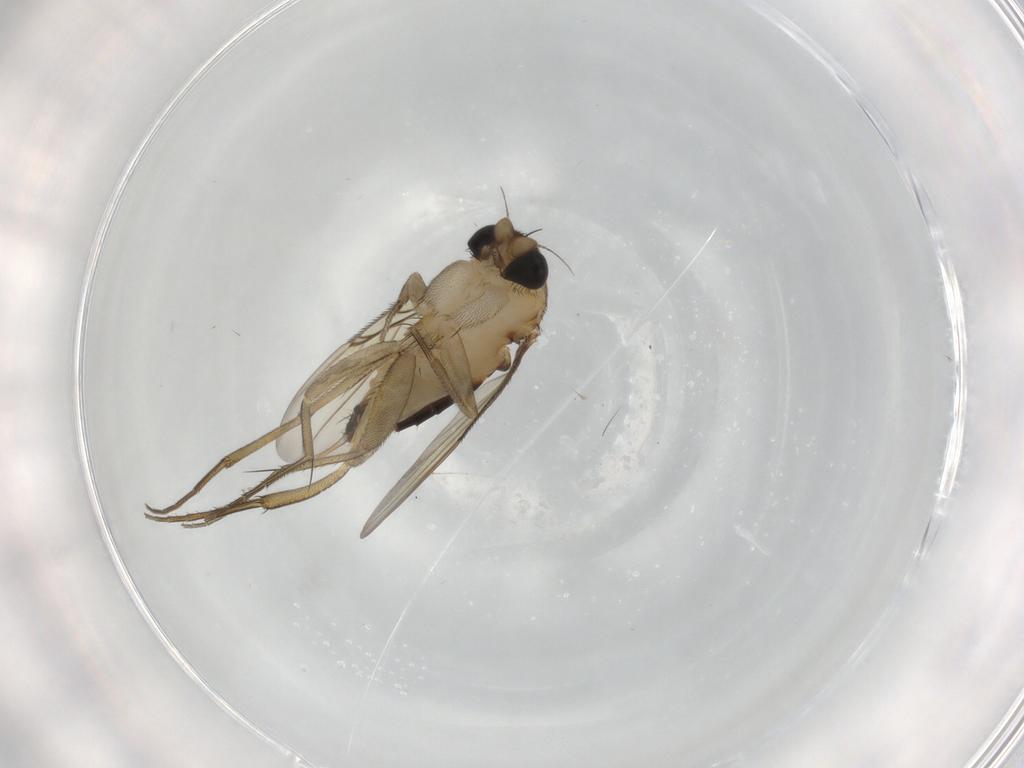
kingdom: Animalia
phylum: Arthropoda
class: Insecta
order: Diptera
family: Phoridae
